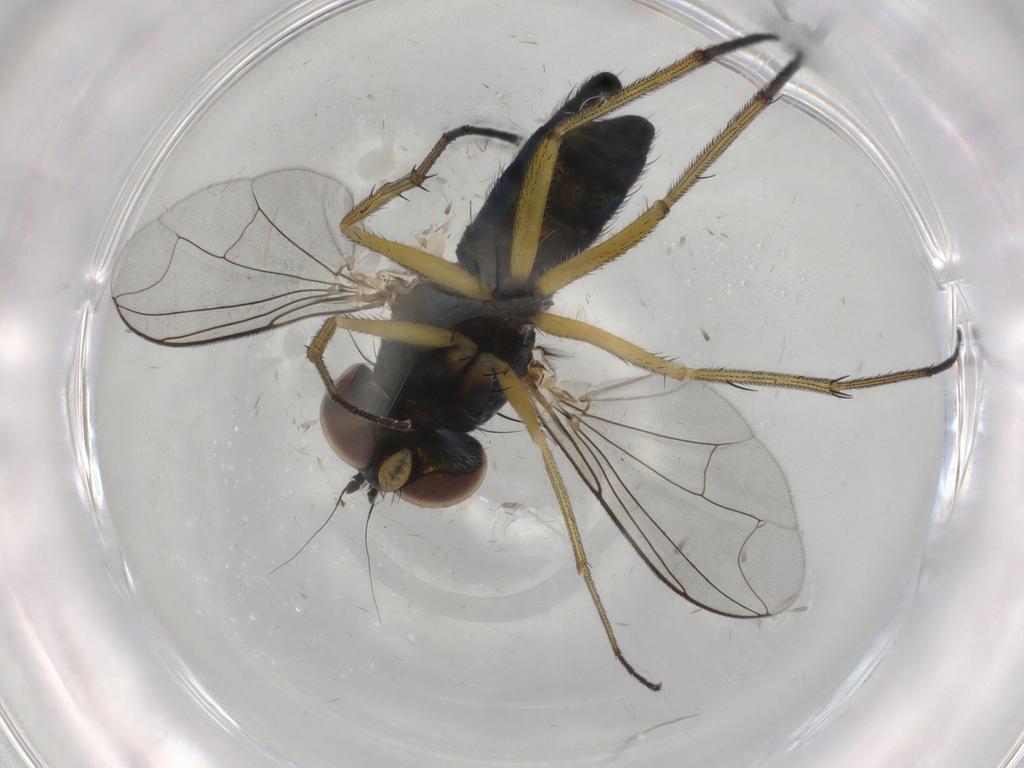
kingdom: Animalia
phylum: Arthropoda
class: Insecta
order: Diptera
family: Dolichopodidae
